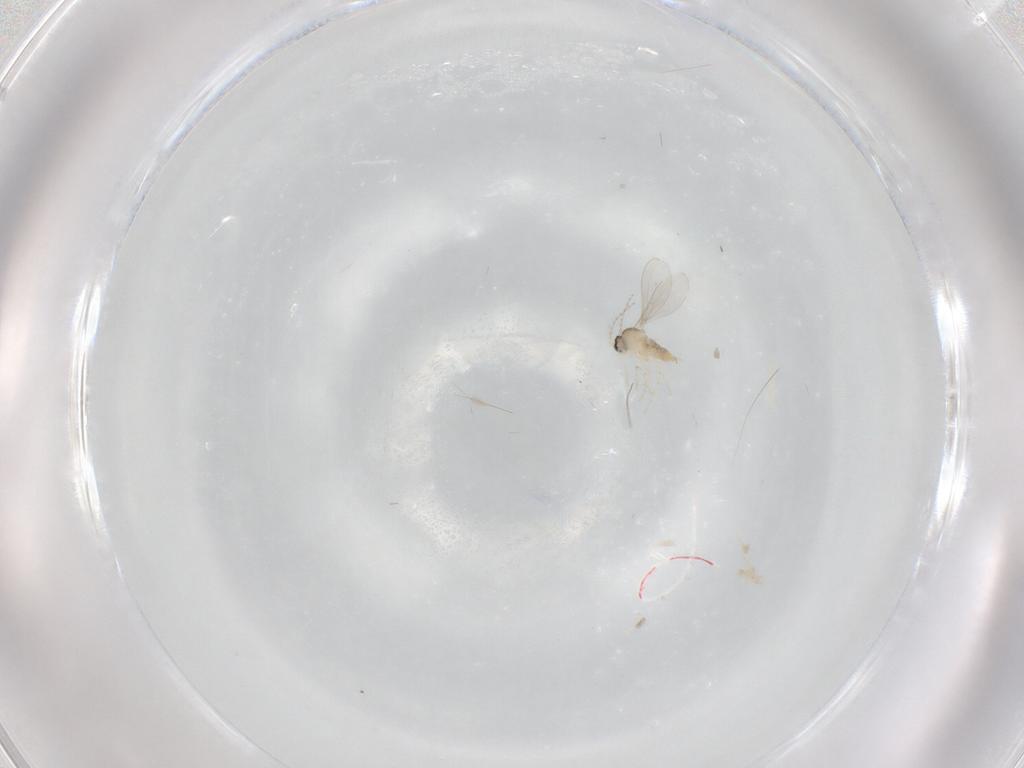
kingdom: Animalia
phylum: Arthropoda
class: Insecta
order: Diptera
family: Cecidomyiidae
